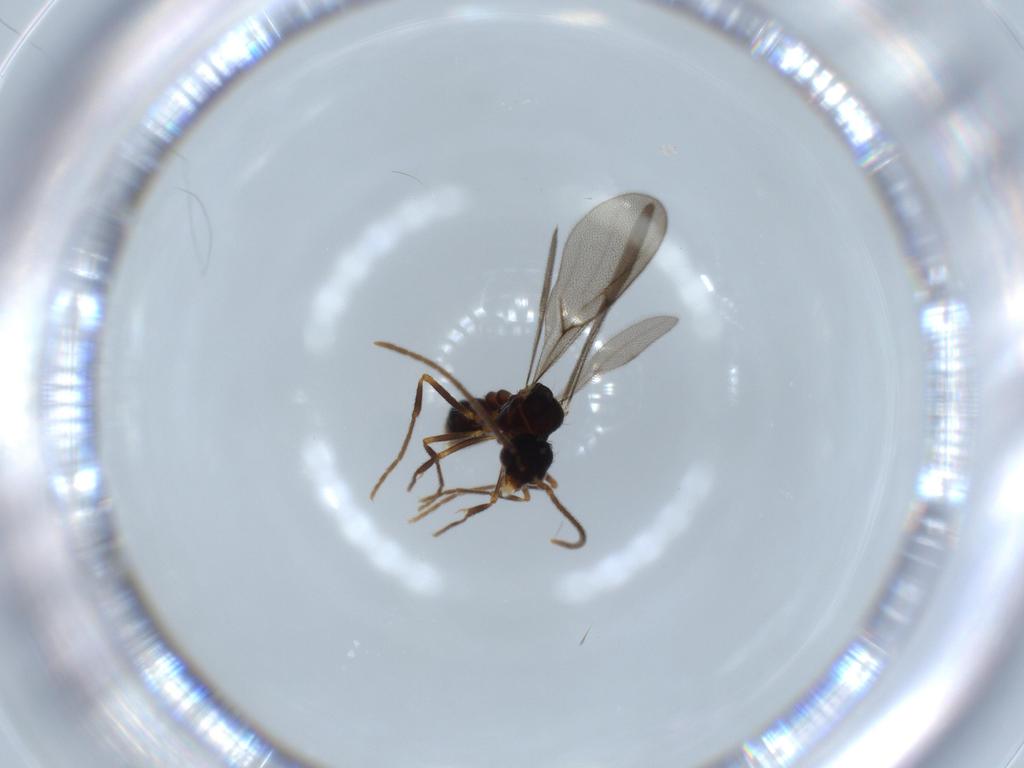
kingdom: Animalia
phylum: Arthropoda
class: Insecta
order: Hymenoptera
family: Formicidae
